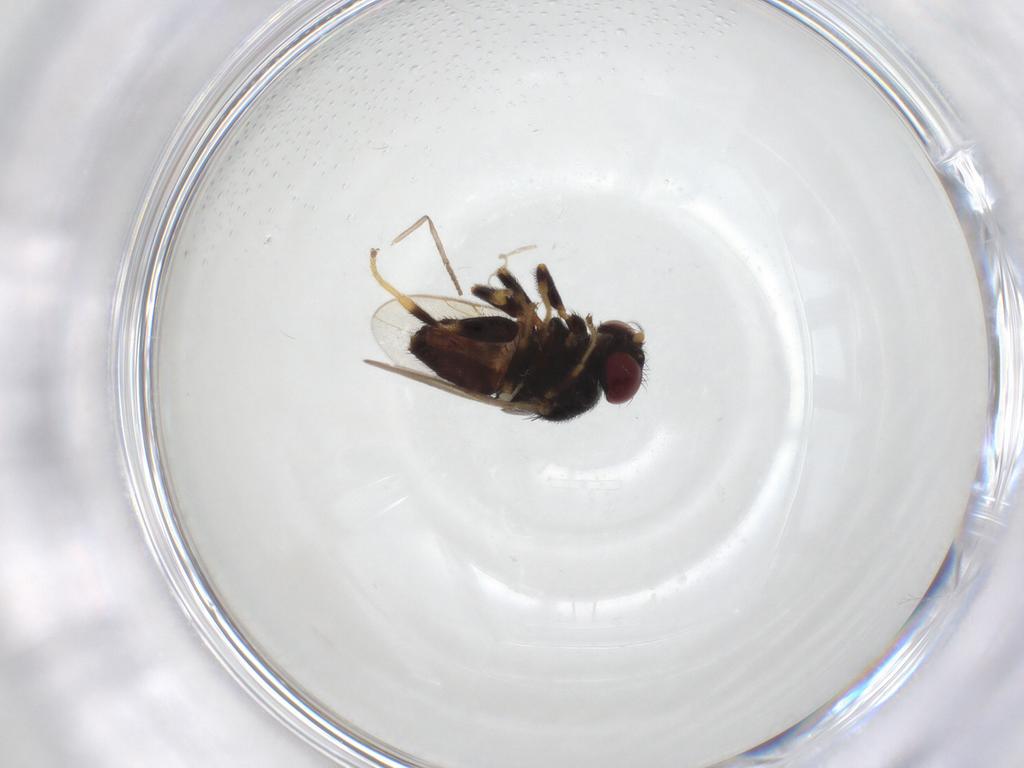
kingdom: Animalia
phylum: Arthropoda
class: Insecta
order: Diptera
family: Chloropidae
